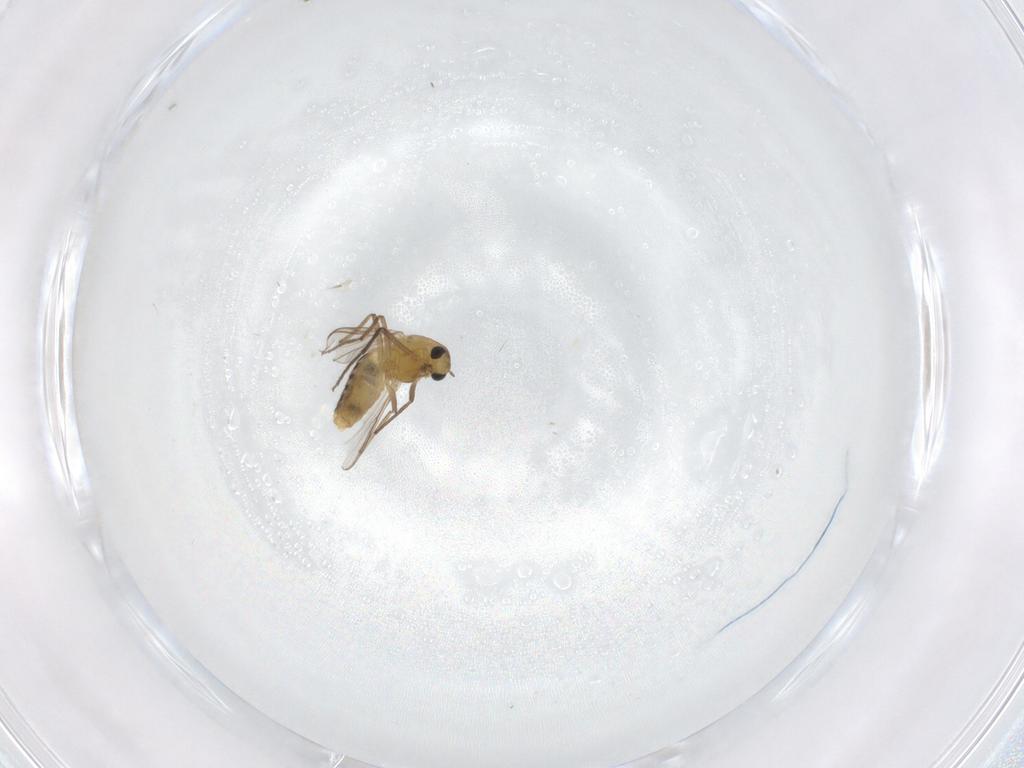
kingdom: Animalia
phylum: Arthropoda
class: Insecta
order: Diptera
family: Chironomidae
